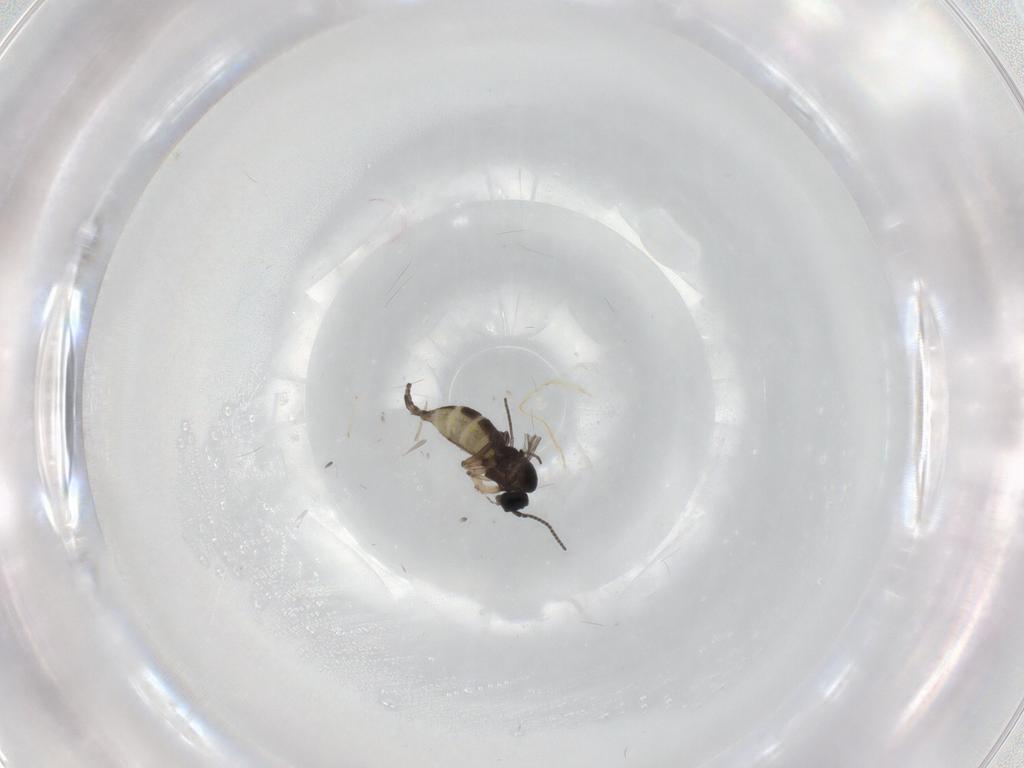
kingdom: Animalia
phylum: Arthropoda
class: Insecta
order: Diptera
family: Sciaridae
